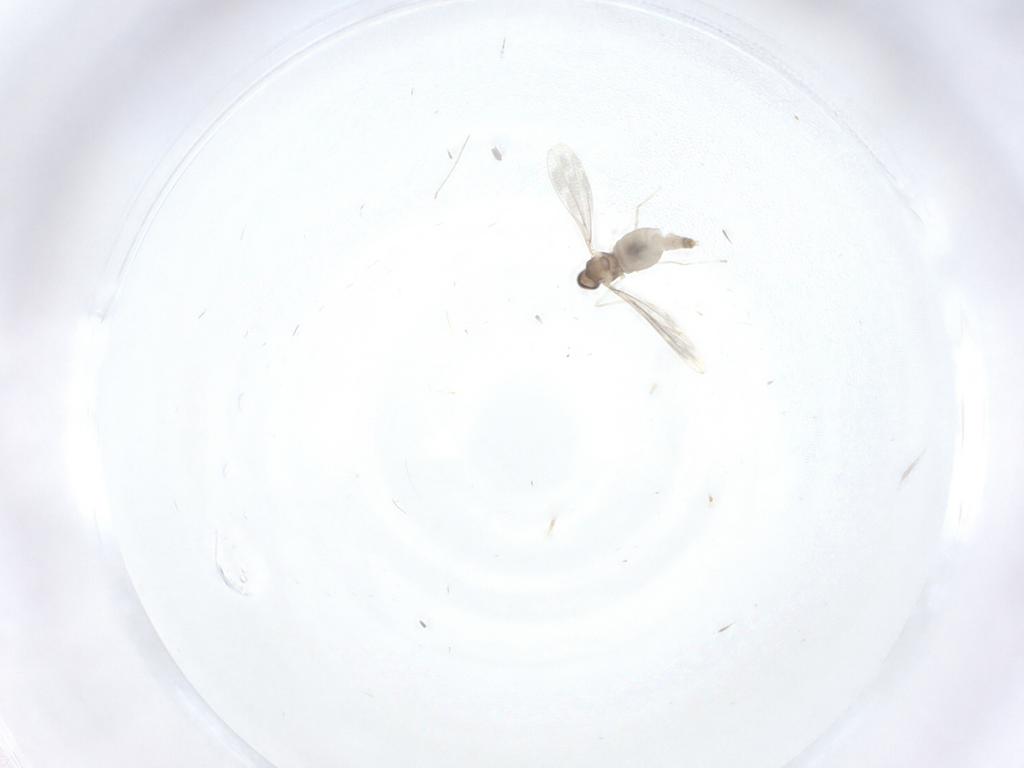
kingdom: Animalia
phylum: Arthropoda
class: Insecta
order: Diptera
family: Cecidomyiidae
